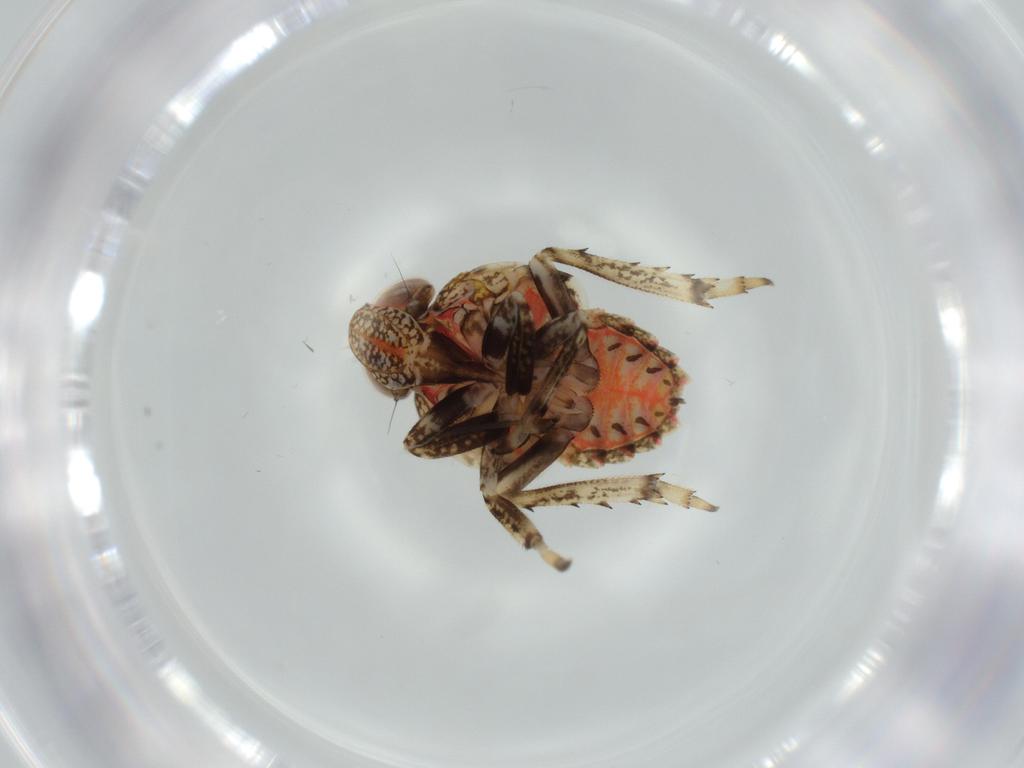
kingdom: Animalia
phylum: Arthropoda
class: Insecta
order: Hemiptera
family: Issidae
